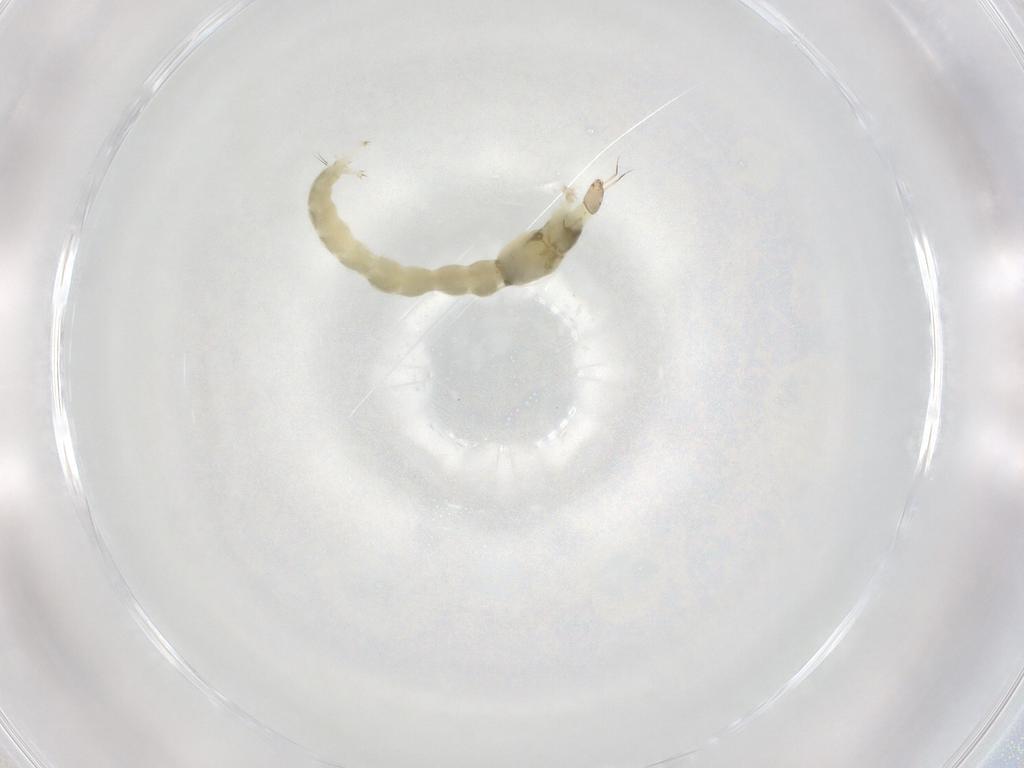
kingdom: Animalia
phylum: Arthropoda
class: Insecta
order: Diptera
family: Chironomidae
